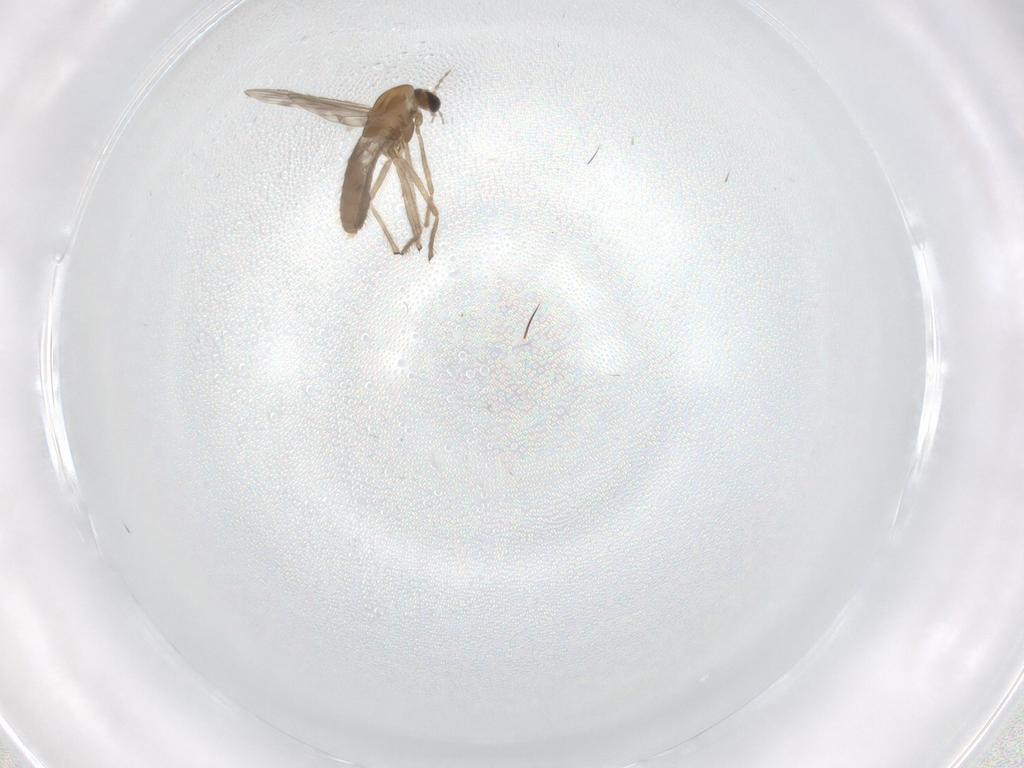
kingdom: Animalia
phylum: Arthropoda
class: Insecta
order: Diptera
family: Chironomidae
